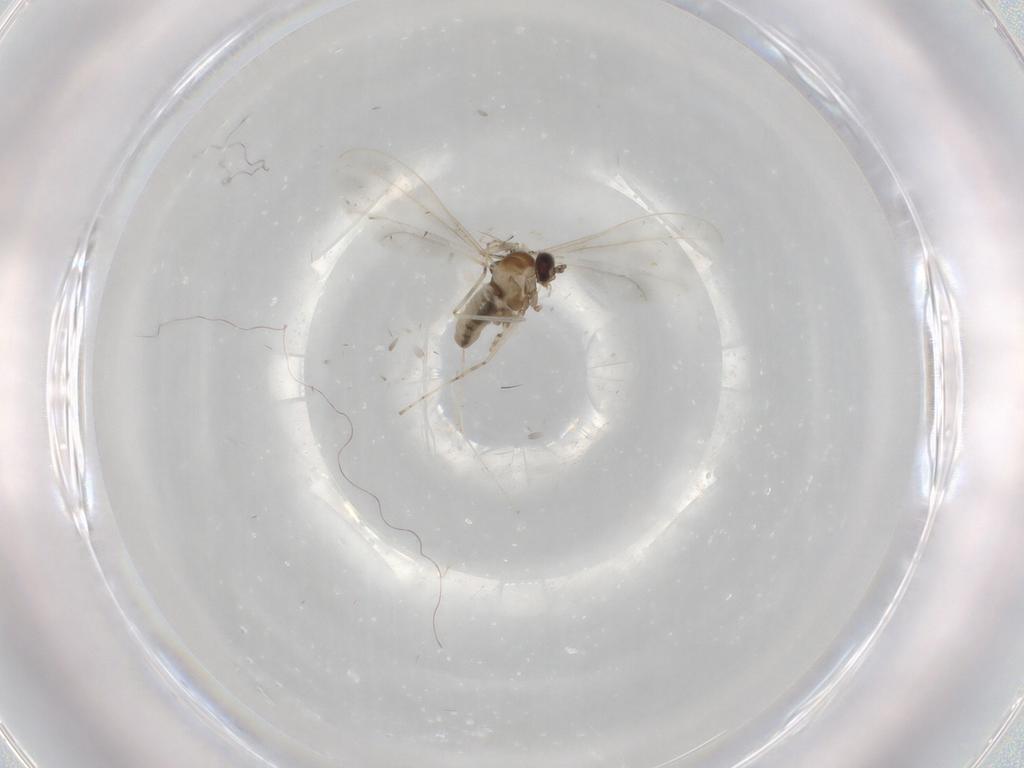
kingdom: Animalia
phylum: Arthropoda
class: Insecta
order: Diptera
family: Cecidomyiidae
